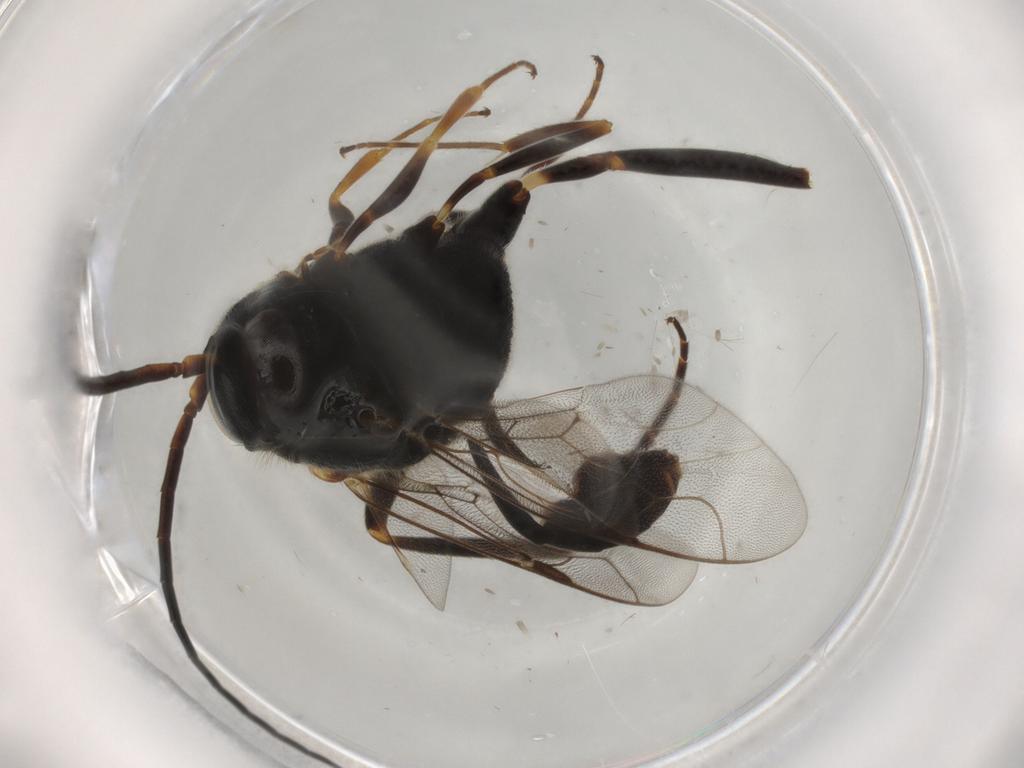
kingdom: Animalia
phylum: Arthropoda
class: Insecta
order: Hymenoptera
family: Evaniidae
